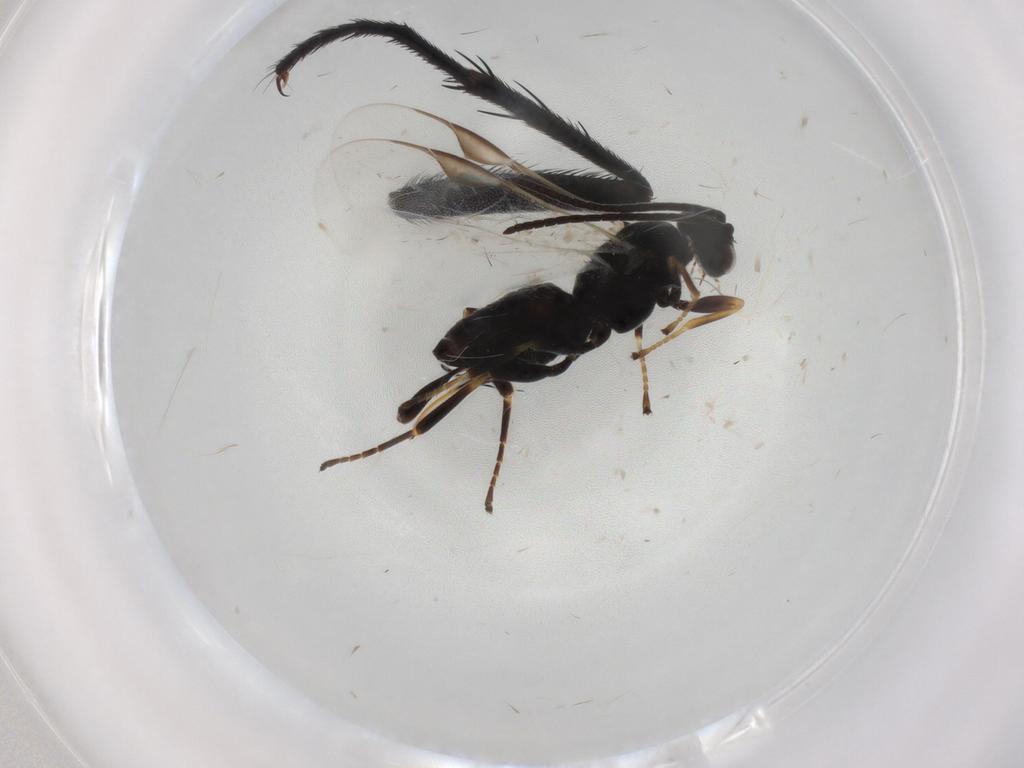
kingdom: Animalia
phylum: Arthropoda
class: Insecta
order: Hymenoptera
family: Braconidae
